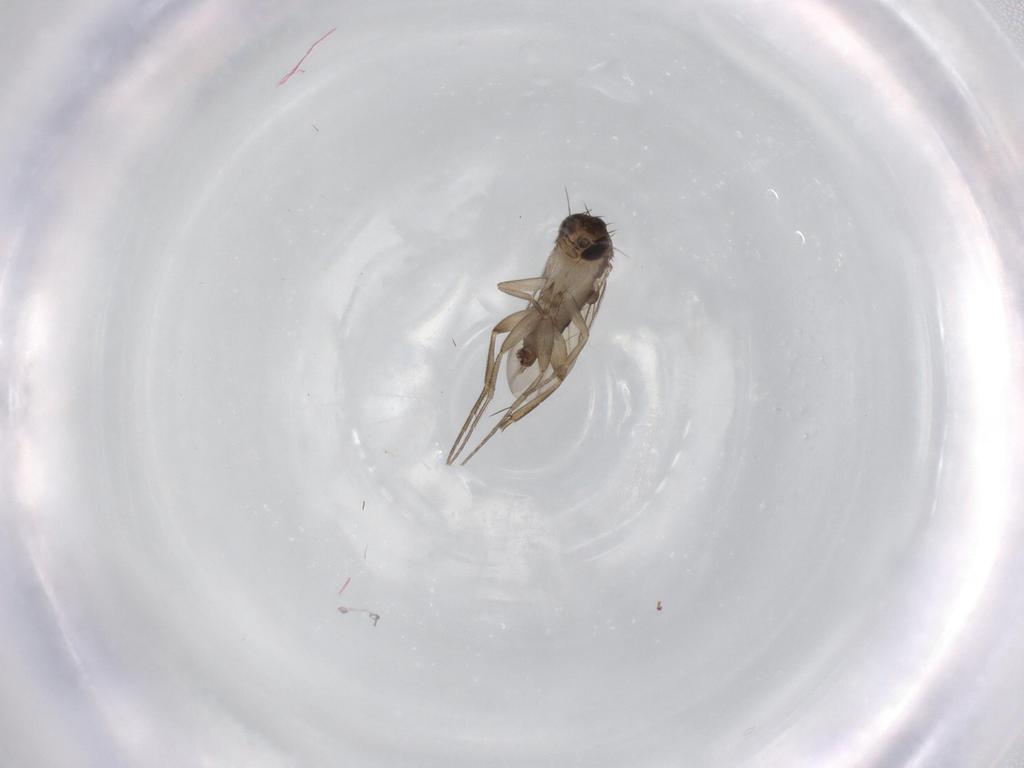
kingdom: Animalia
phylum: Arthropoda
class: Insecta
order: Diptera
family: Phoridae
